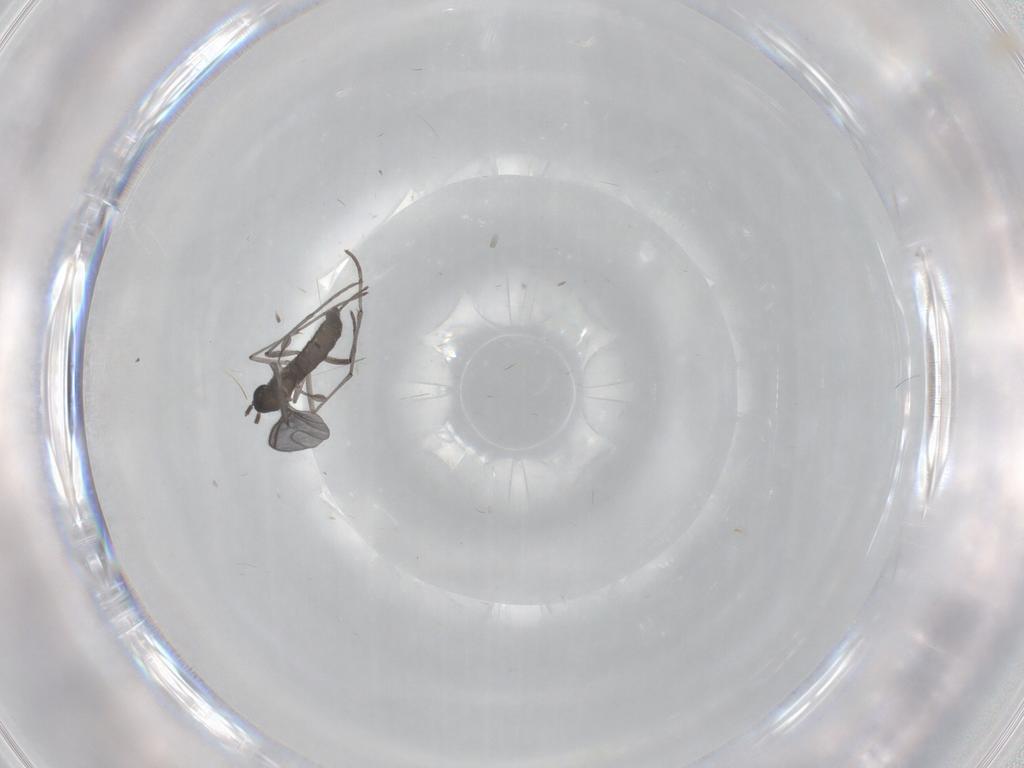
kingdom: Animalia
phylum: Arthropoda
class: Insecta
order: Diptera
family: Sciaridae
